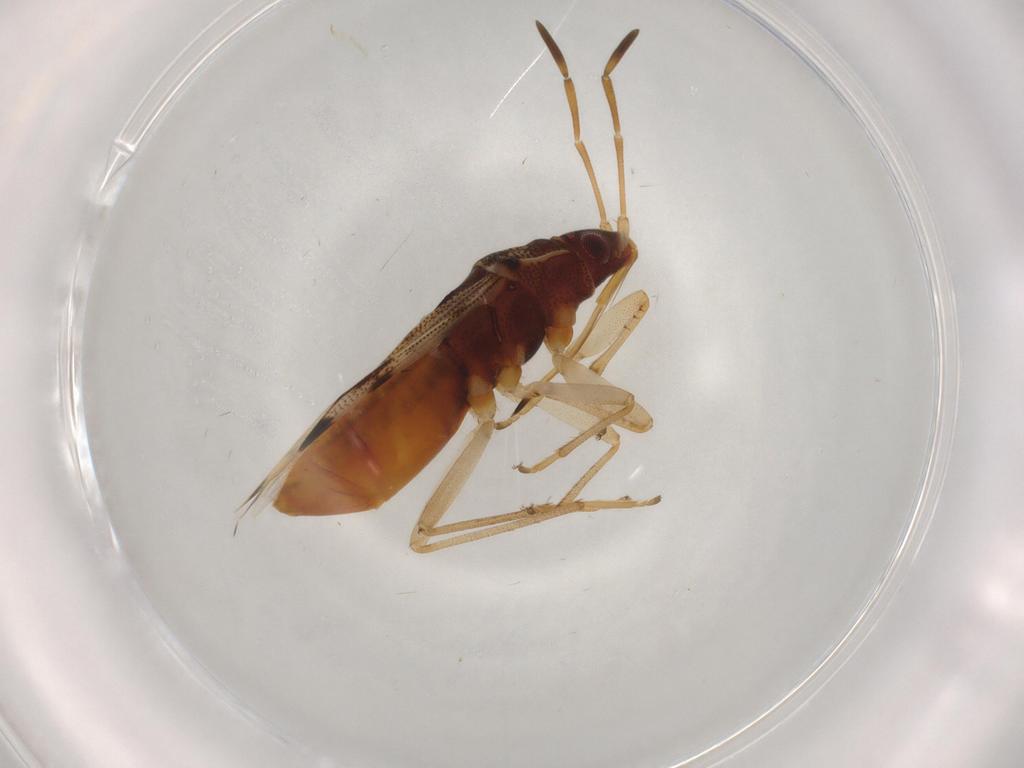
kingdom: Animalia
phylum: Arthropoda
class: Insecta
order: Hemiptera
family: Rhyparochromidae
